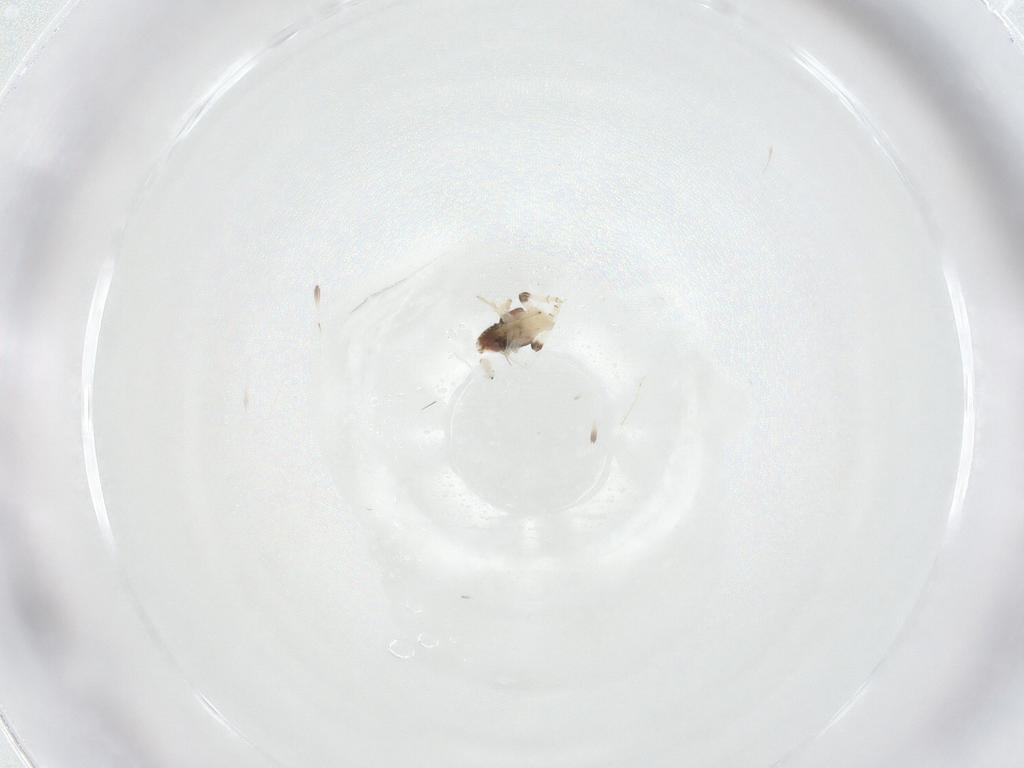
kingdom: Animalia
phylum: Arthropoda
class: Insecta
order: Hemiptera
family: Nogodinidae
